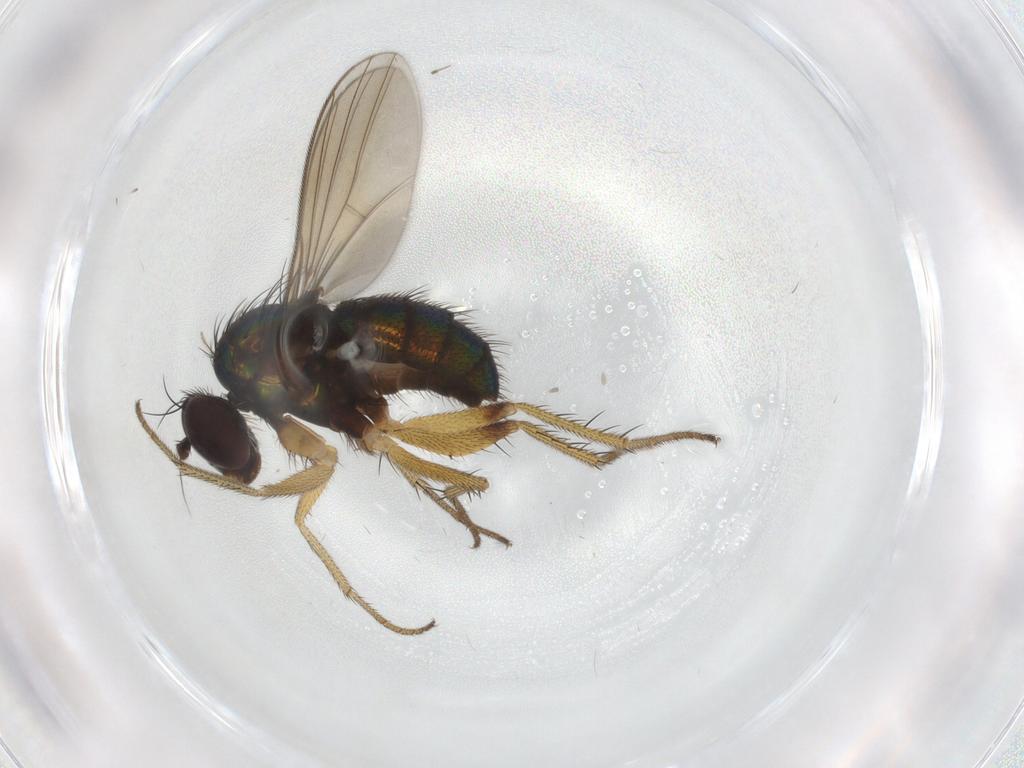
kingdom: Animalia
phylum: Arthropoda
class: Insecta
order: Diptera
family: Dolichopodidae
